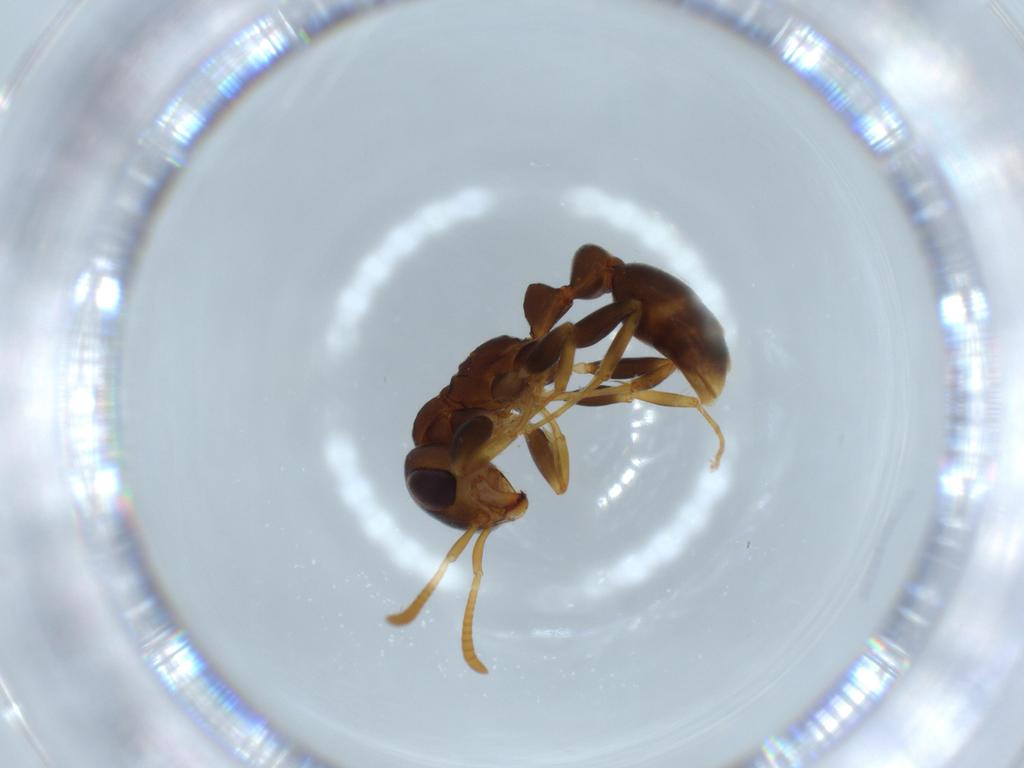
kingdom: Animalia
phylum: Arthropoda
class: Insecta
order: Hymenoptera
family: Formicidae
